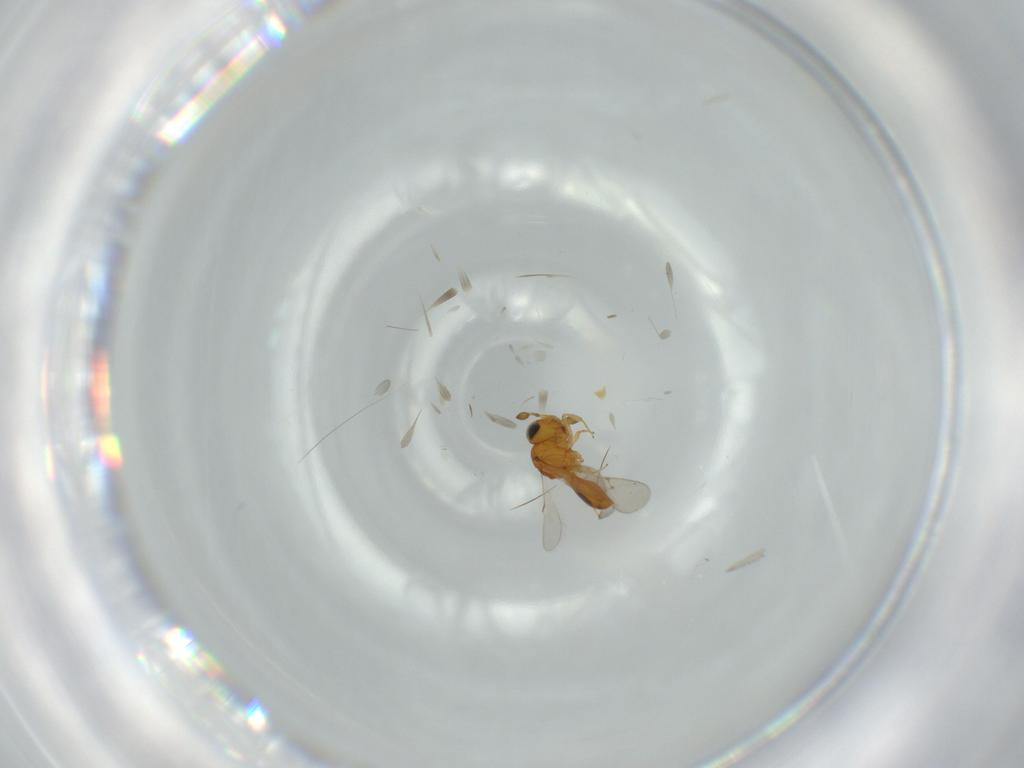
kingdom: Animalia
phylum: Arthropoda
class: Insecta
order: Hymenoptera
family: Scelionidae
